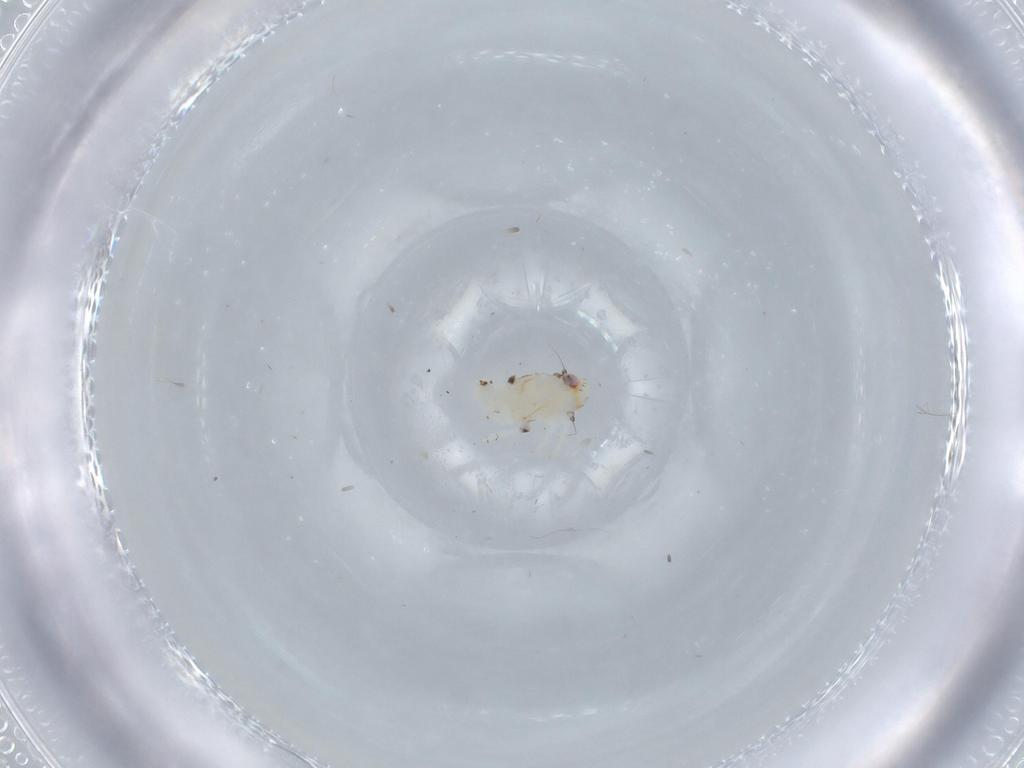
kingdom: Animalia
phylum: Arthropoda
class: Insecta
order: Hemiptera
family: Nogodinidae
